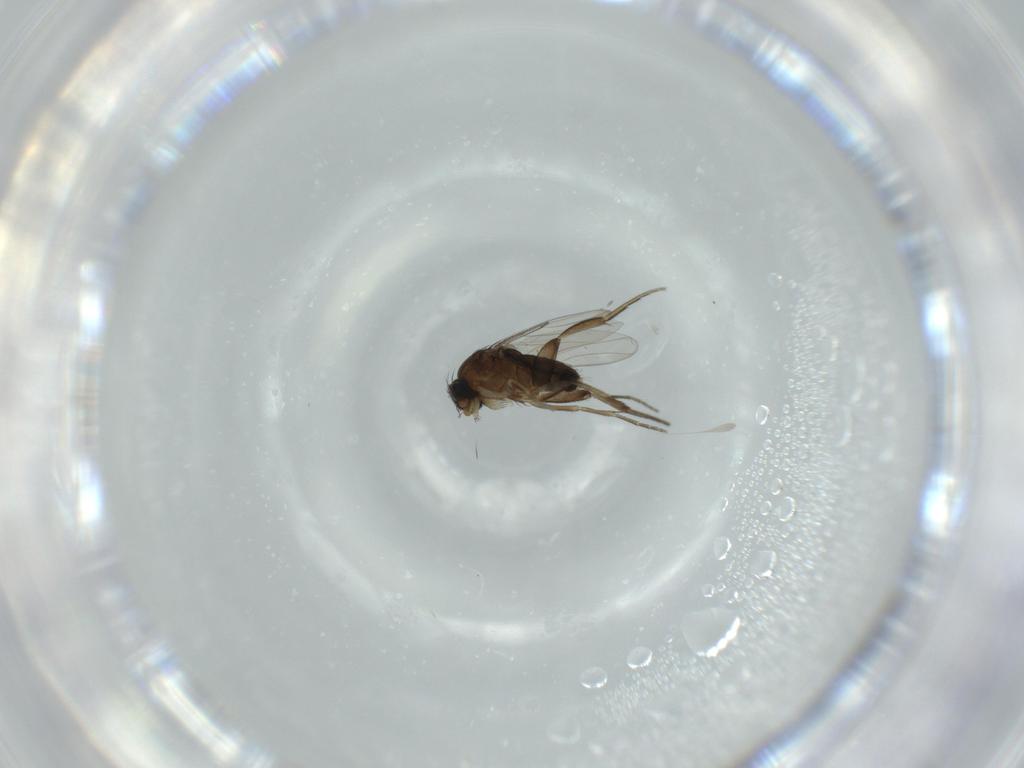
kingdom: Animalia
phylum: Arthropoda
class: Insecta
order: Diptera
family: Phoridae
